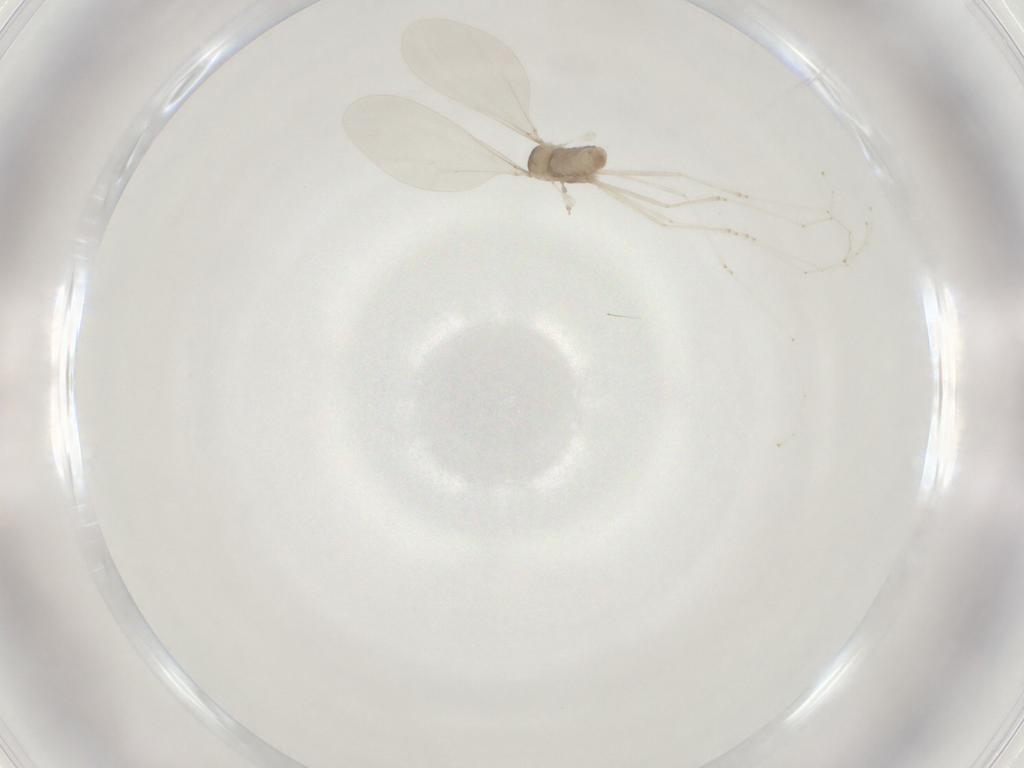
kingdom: Animalia
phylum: Arthropoda
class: Insecta
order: Diptera
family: Cecidomyiidae
